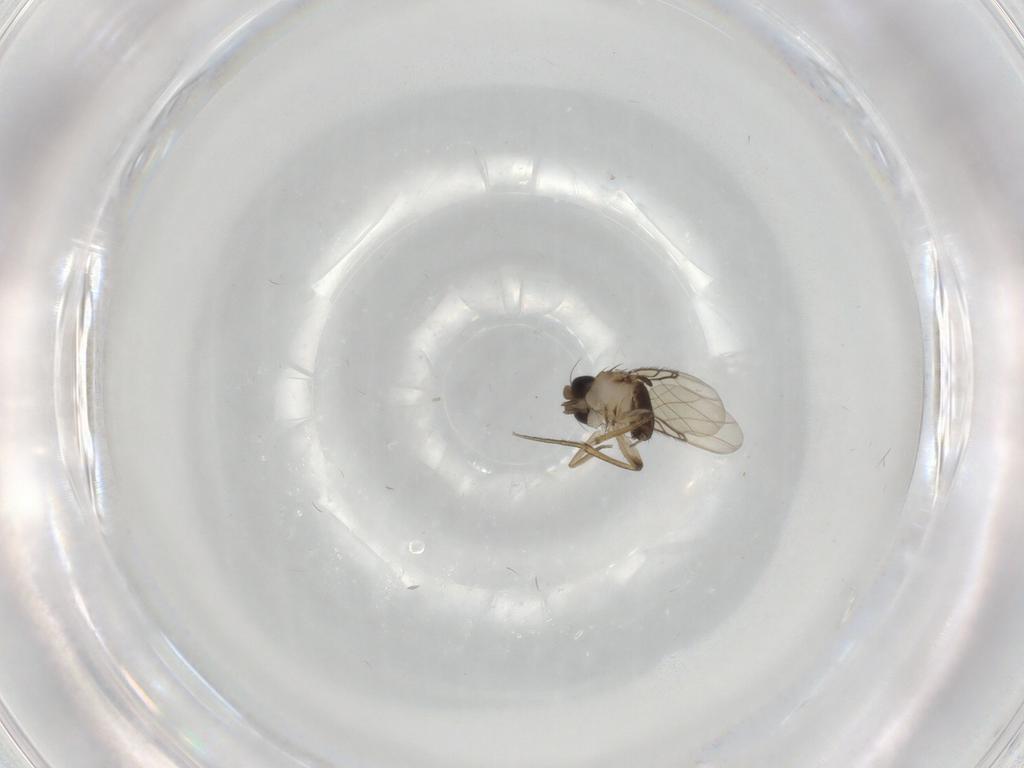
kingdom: Animalia
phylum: Arthropoda
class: Insecta
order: Diptera
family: Phoridae
